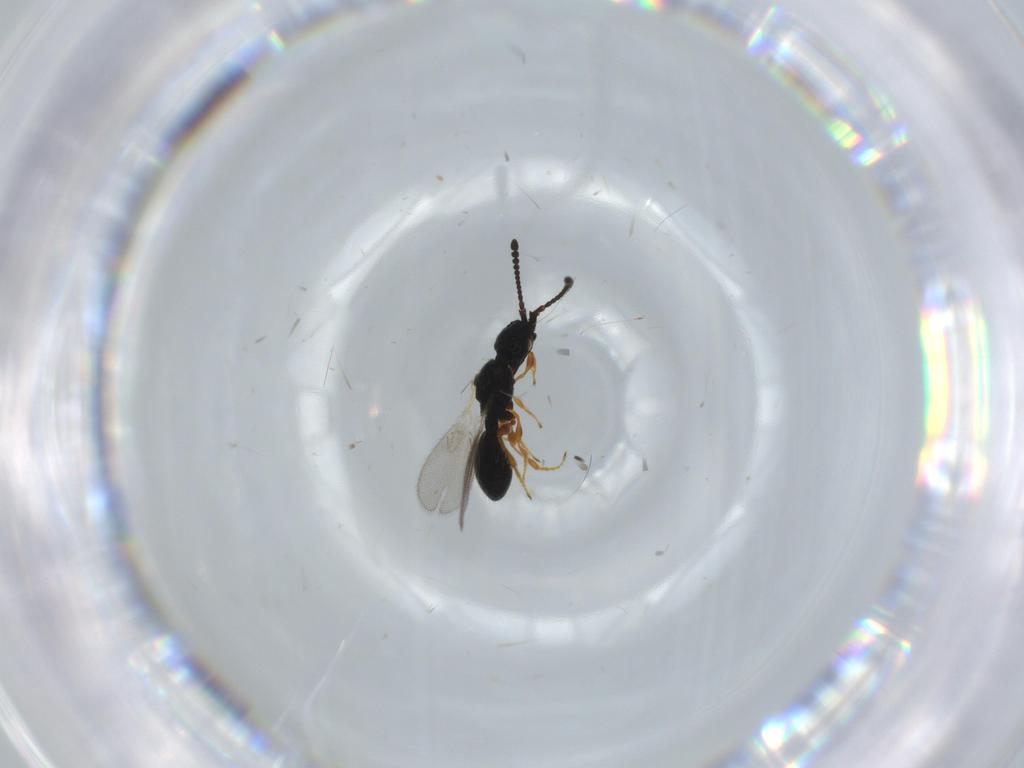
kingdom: Animalia
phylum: Arthropoda
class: Insecta
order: Hymenoptera
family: Diapriidae
